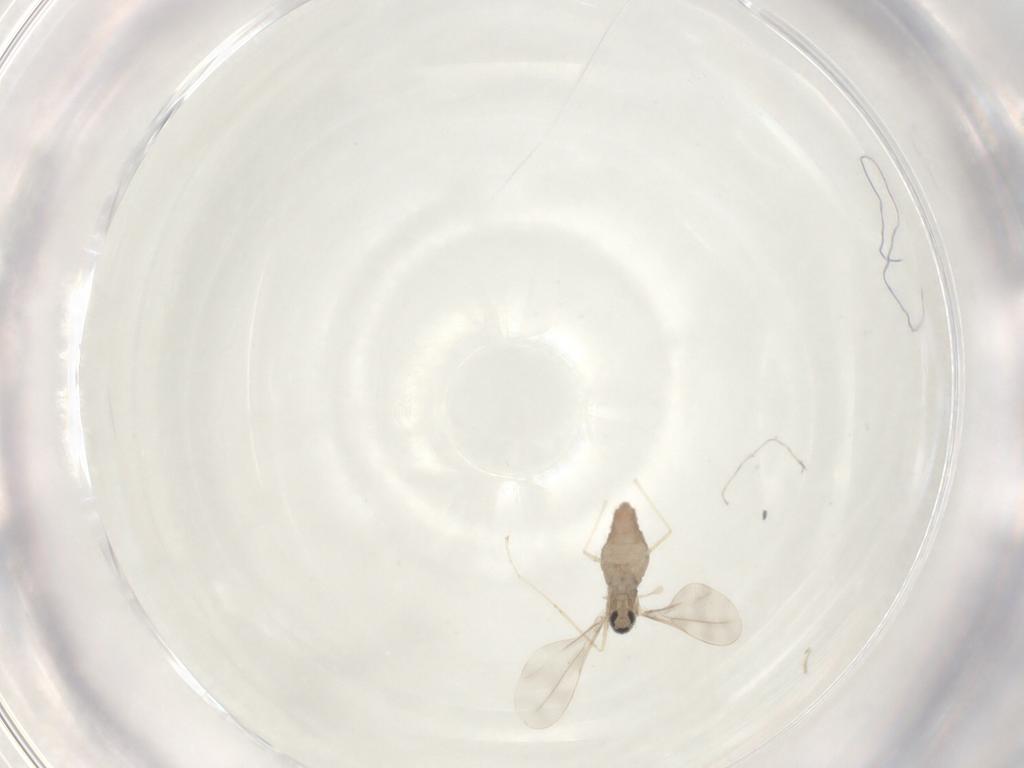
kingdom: Animalia
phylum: Arthropoda
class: Insecta
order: Diptera
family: Cecidomyiidae
